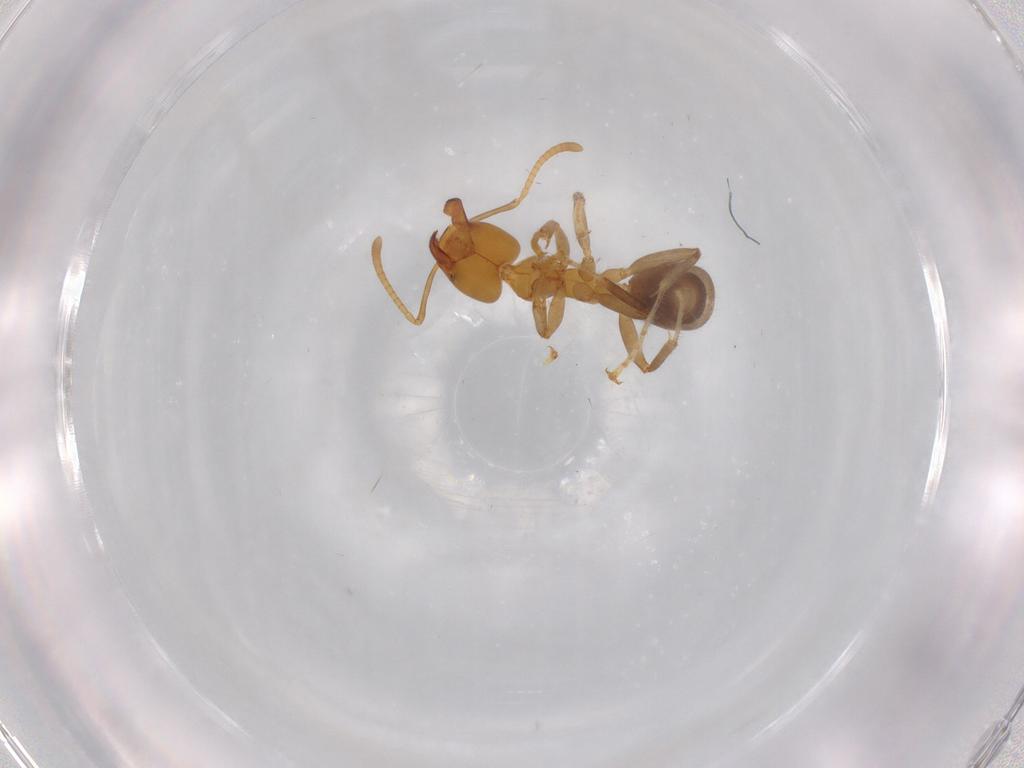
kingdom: Animalia
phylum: Arthropoda
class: Insecta
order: Hymenoptera
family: Formicidae
